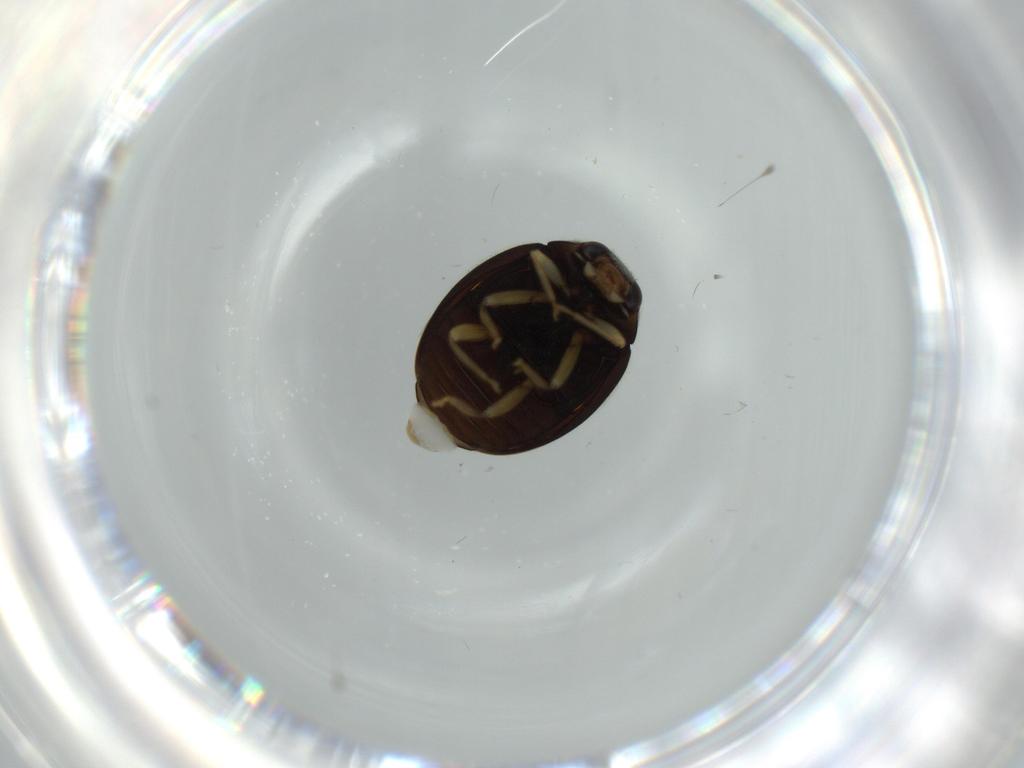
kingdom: Animalia
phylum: Arthropoda
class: Insecta
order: Coleoptera
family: Coccinellidae
